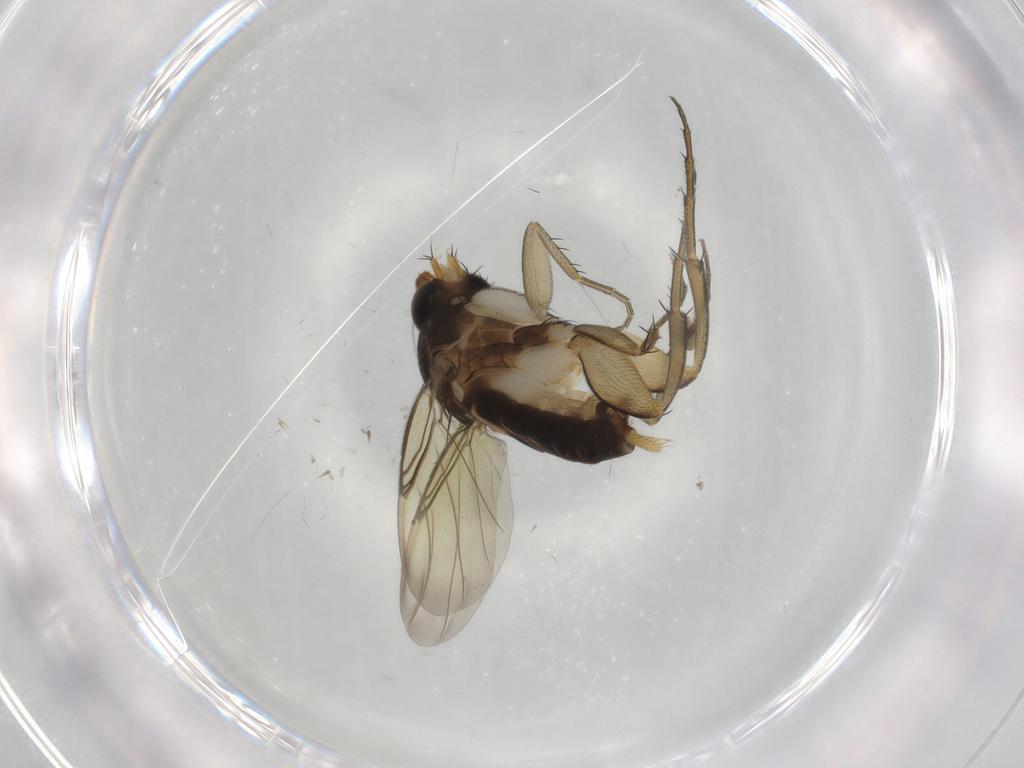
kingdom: Animalia
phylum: Arthropoda
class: Insecta
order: Diptera
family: Phoridae
